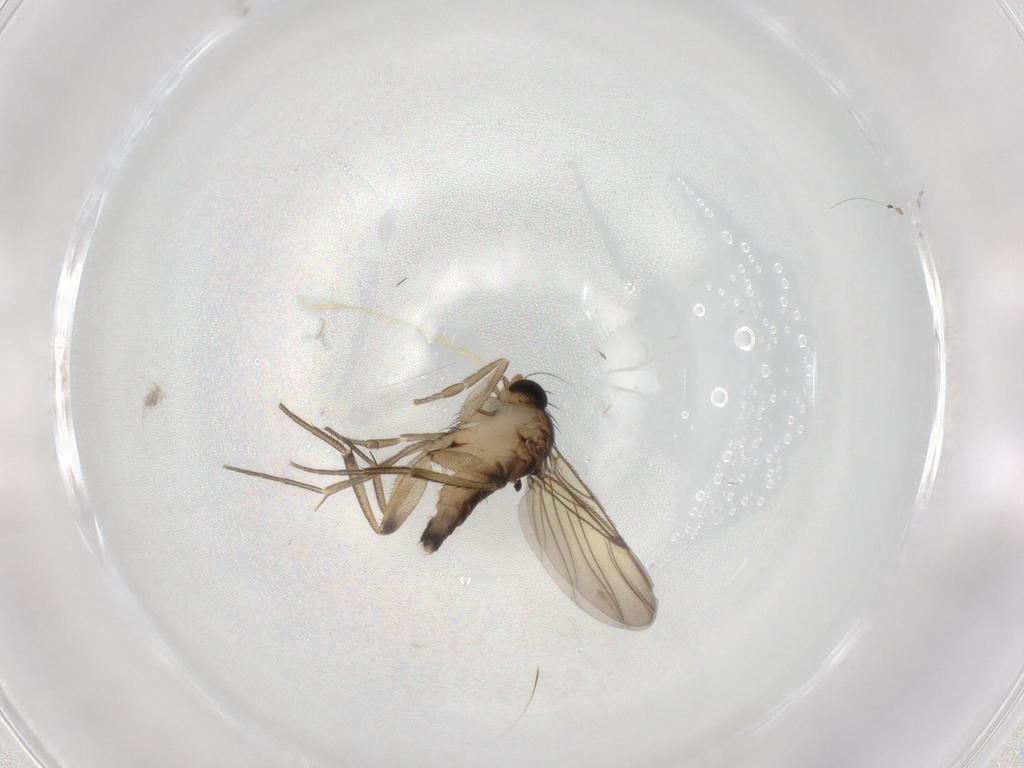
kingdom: Animalia
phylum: Arthropoda
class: Insecta
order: Diptera
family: Phoridae
